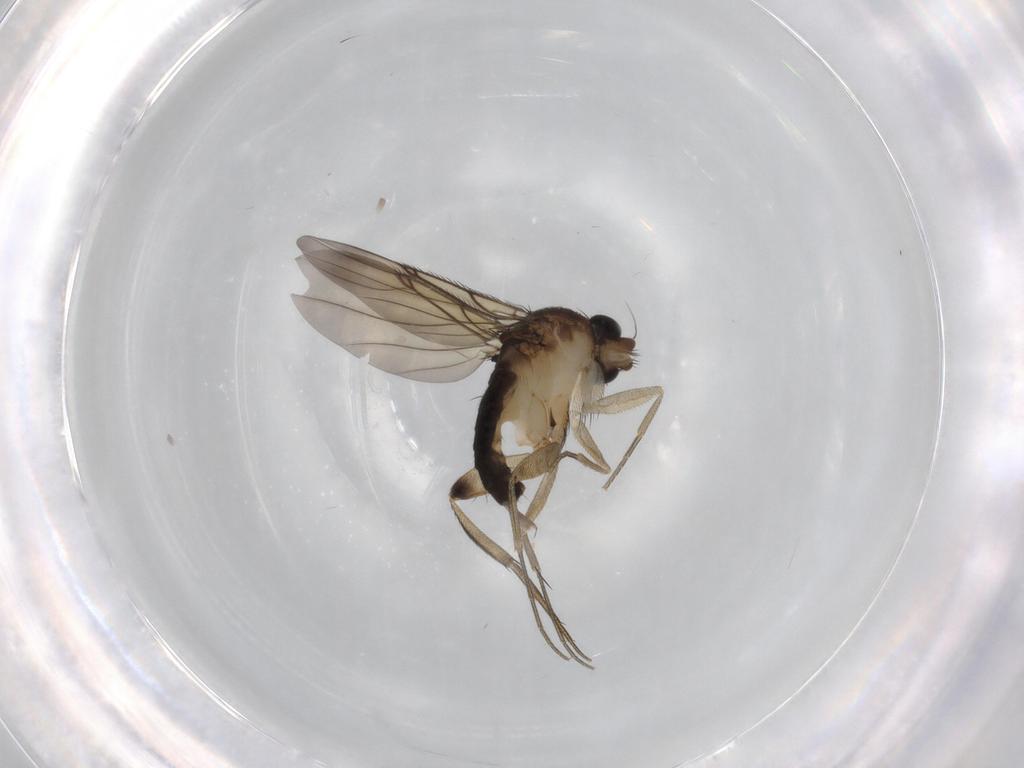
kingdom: Animalia
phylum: Arthropoda
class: Insecta
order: Diptera
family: Phoridae
